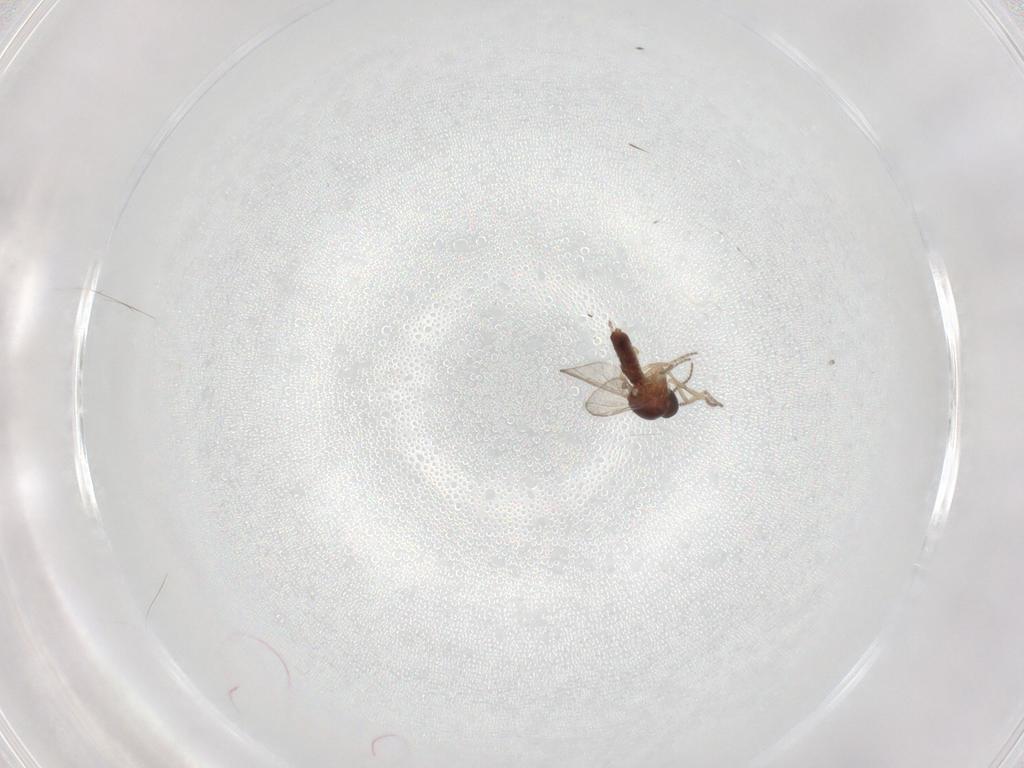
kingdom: Animalia
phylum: Arthropoda
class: Insecta
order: Diptera
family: Ceratopogonidae
